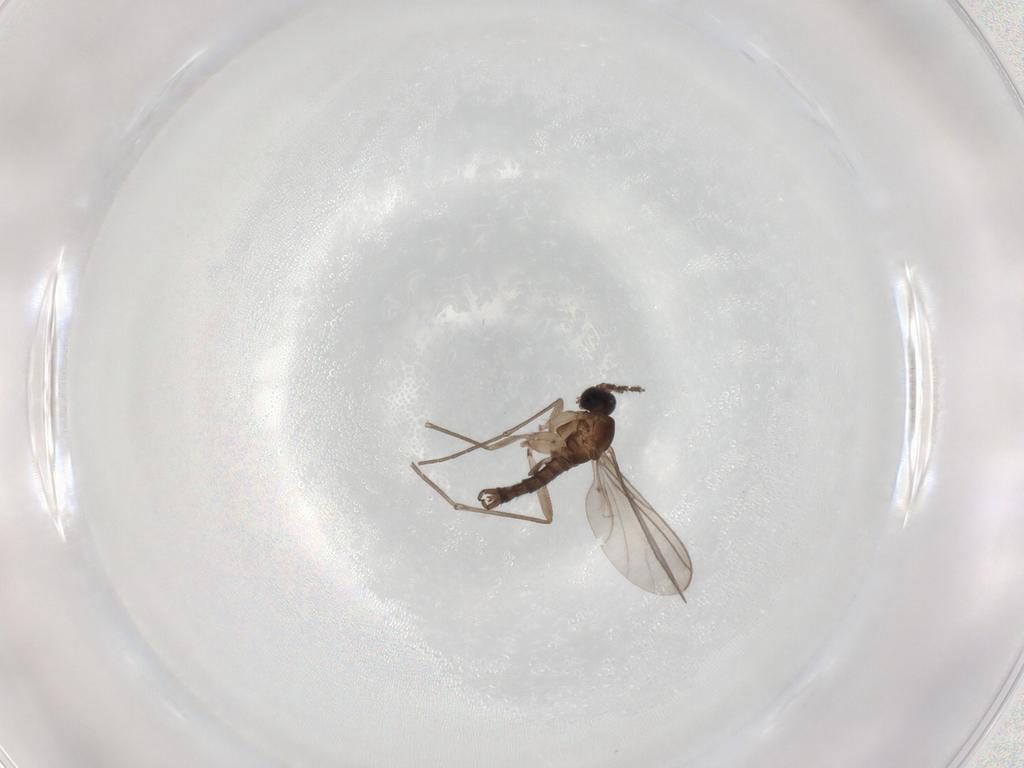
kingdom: Animalia
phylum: Arthropoda
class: Insecta
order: Diptera
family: Sciaridae
